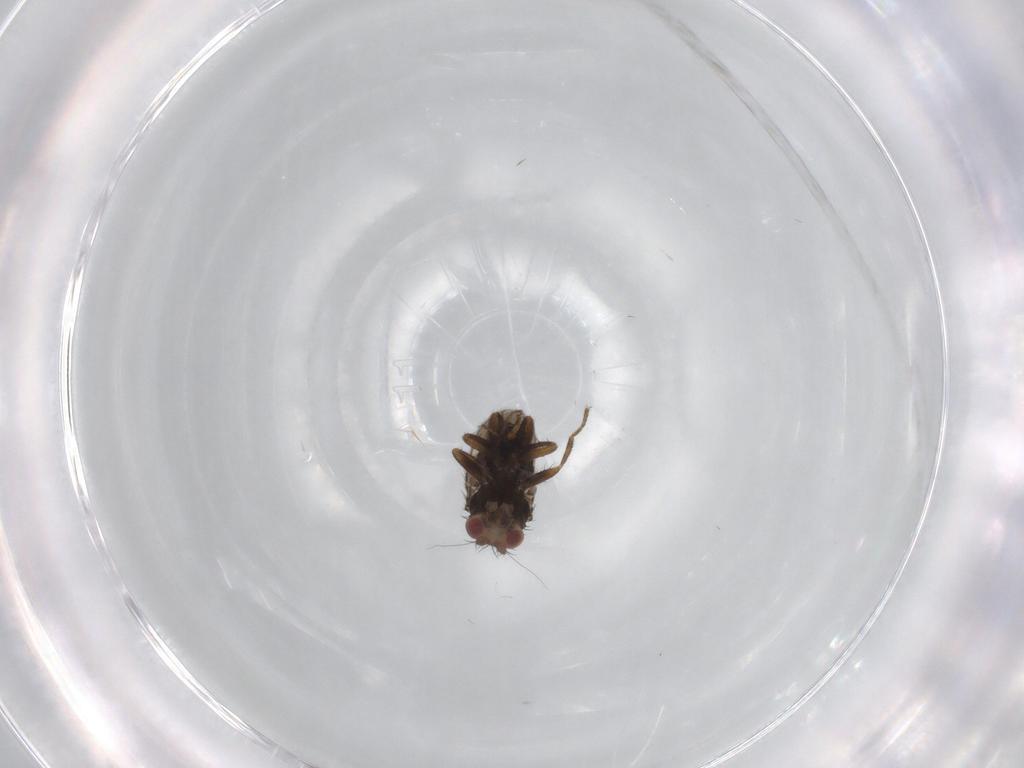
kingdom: Animalia
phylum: Arthropoda
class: Insecta
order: Diptera
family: Sphaeroceridae
